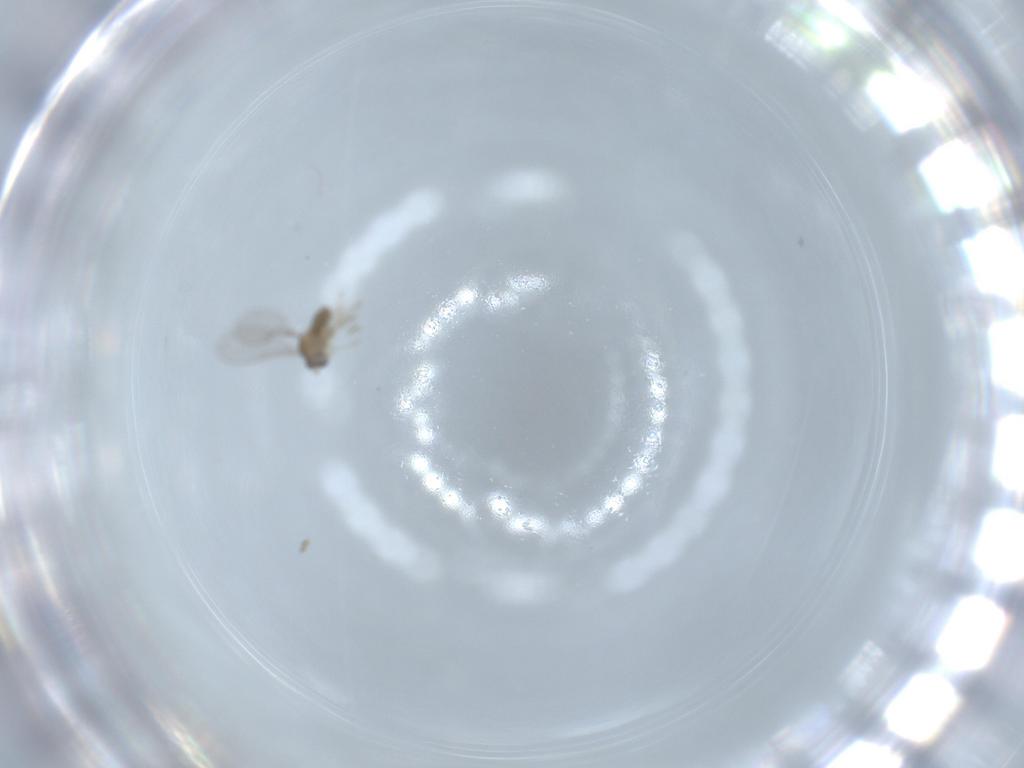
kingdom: Animalia
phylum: Arthropoda
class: Insecta
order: Diptera
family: Cecidomyiidae
